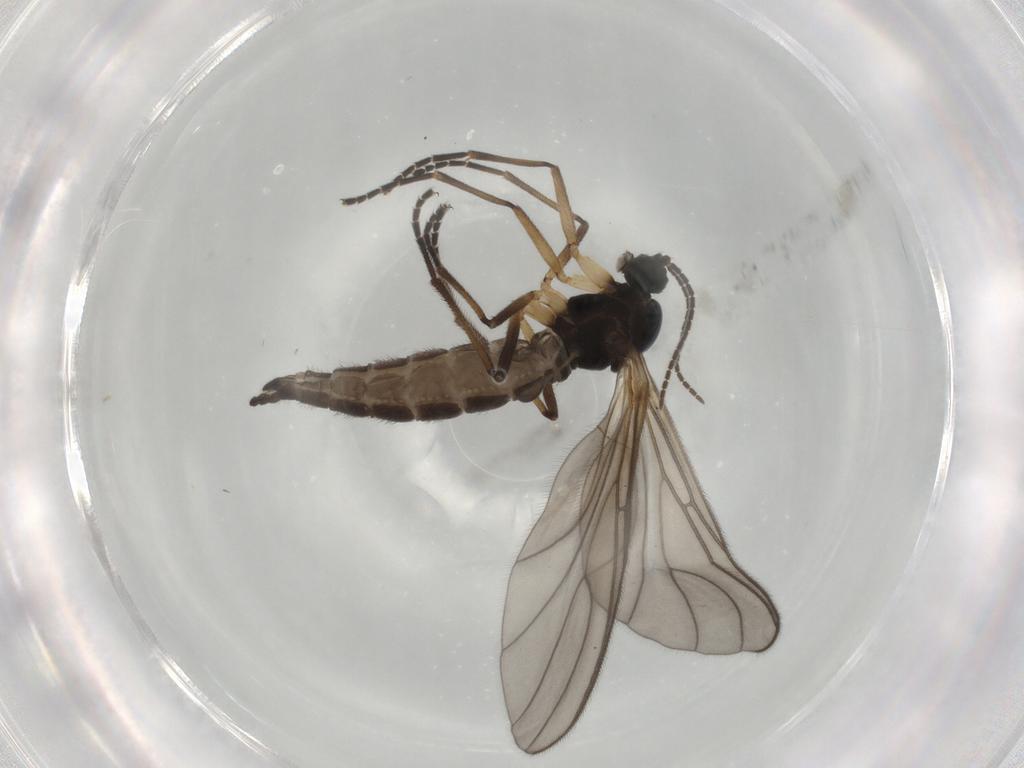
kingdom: Animalia
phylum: Arthropoda
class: Insecta
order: Diptera
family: Sciaridae
